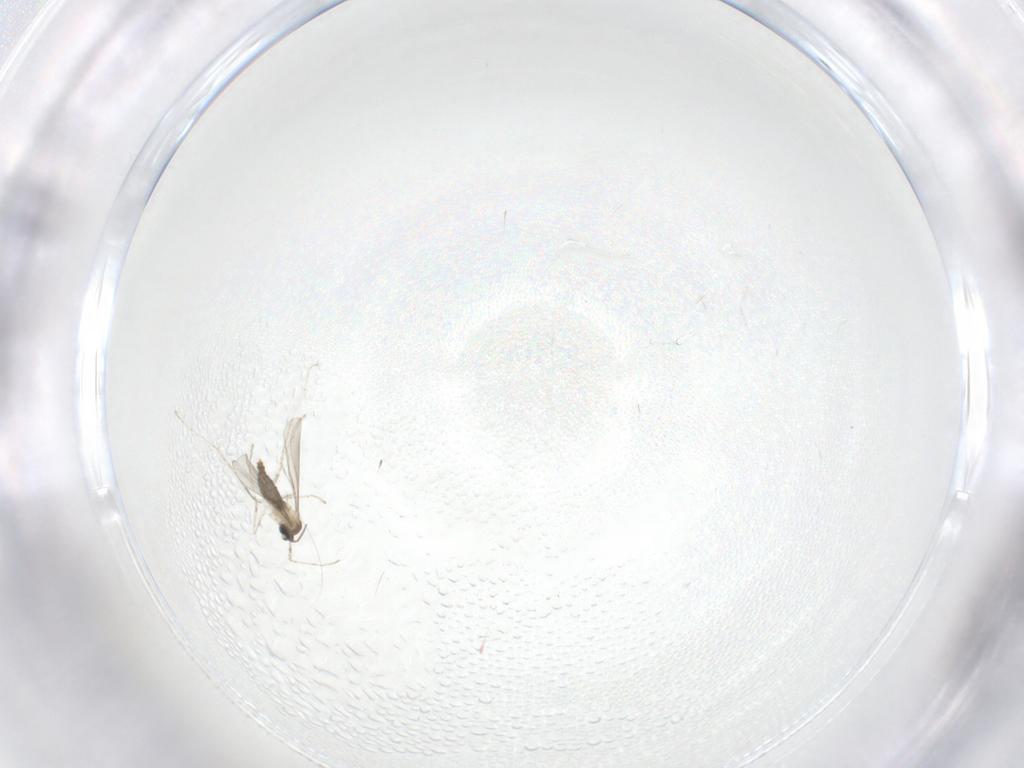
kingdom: Animalia
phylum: Arthropoda
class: Insecta
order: Diptera
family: Cecidomyiidae
